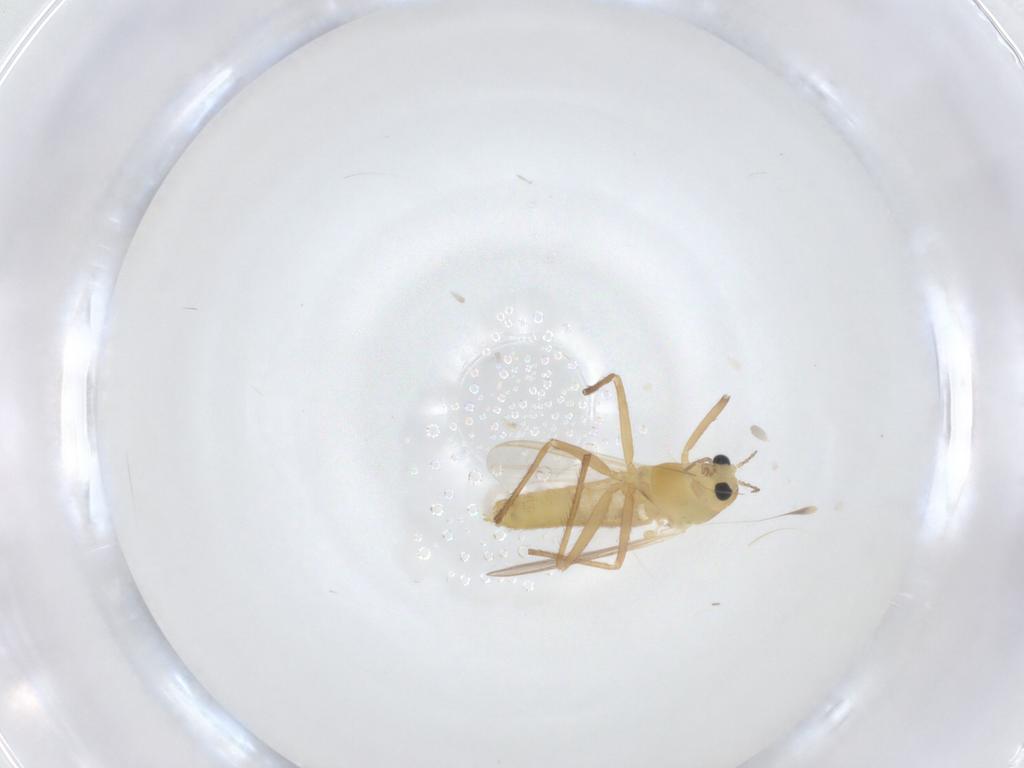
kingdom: Animalia
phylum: Arthropoda
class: Insecta
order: Diptera
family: Chironomidae
